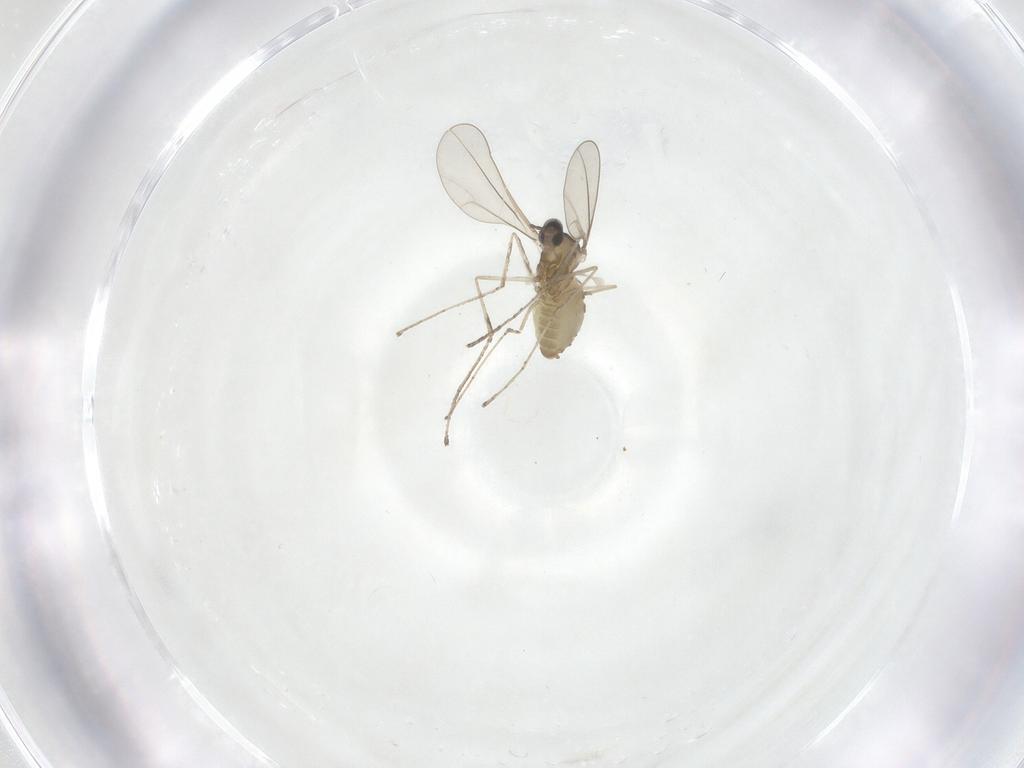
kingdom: Animalia
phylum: Arthropoda
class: Insecta
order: Diptera
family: Cecidomyiidae
